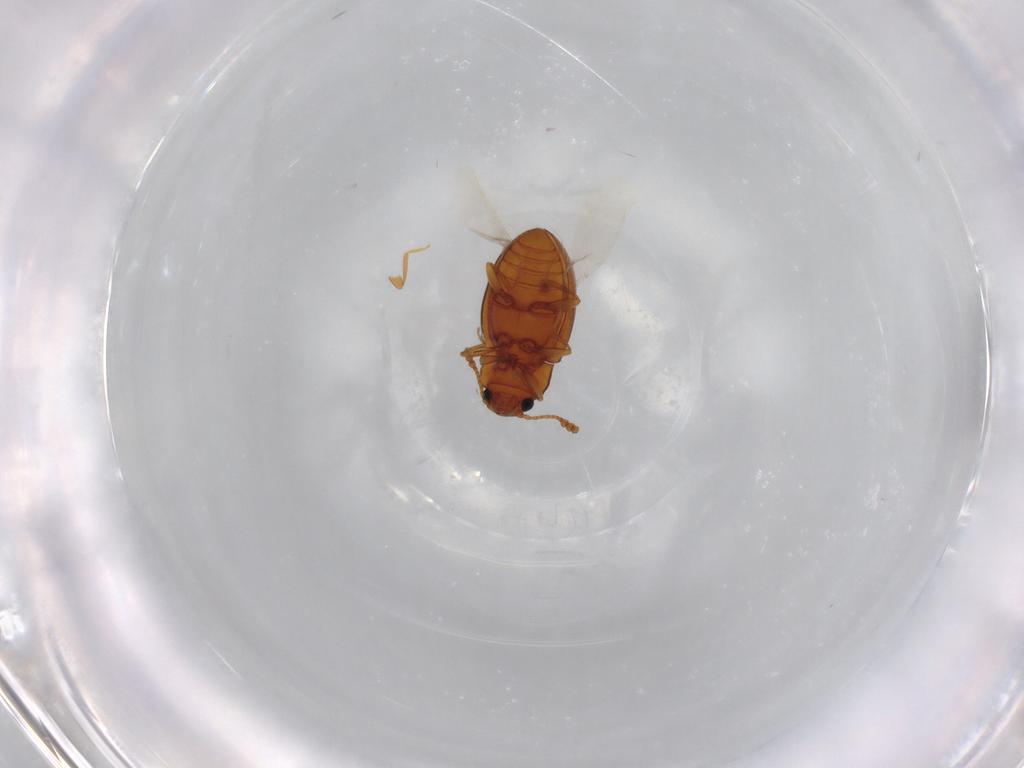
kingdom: Animalia
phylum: Arthropoda
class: Insecta
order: Coleoptera
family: Erotylidae
